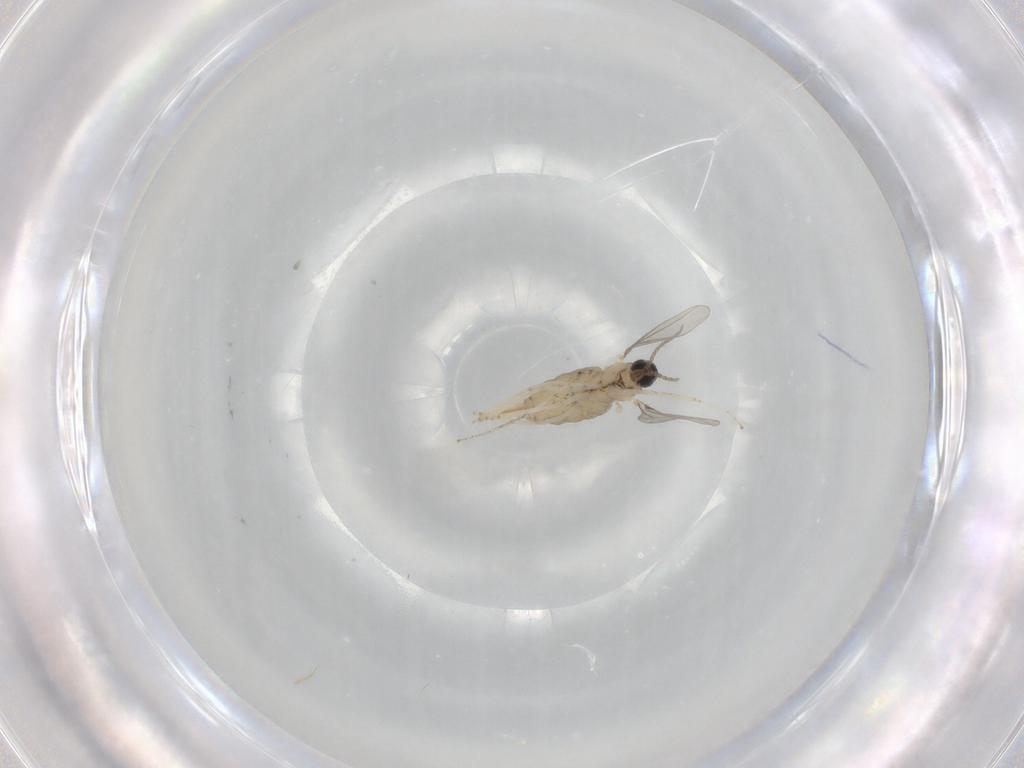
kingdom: Animalia
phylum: Arthropoda
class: Insecta
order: Diptera
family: Cecidomyiidae
